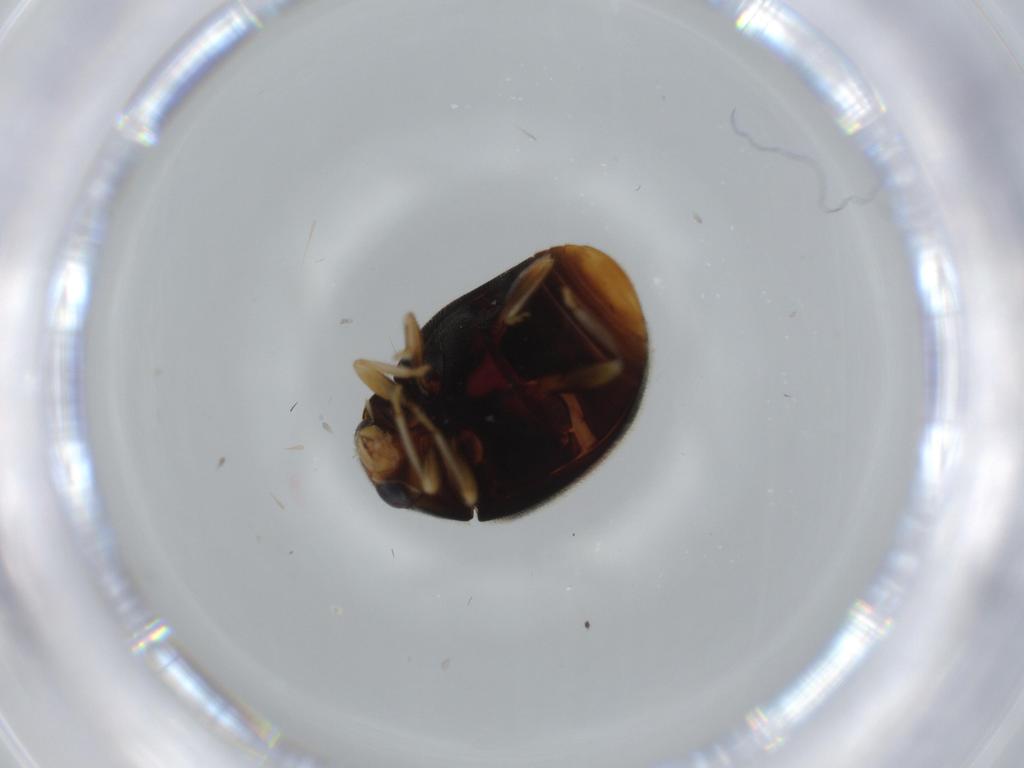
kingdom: Animalia
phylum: Arthropoda
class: Insecta
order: Coleoptera
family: Coccinellidae
